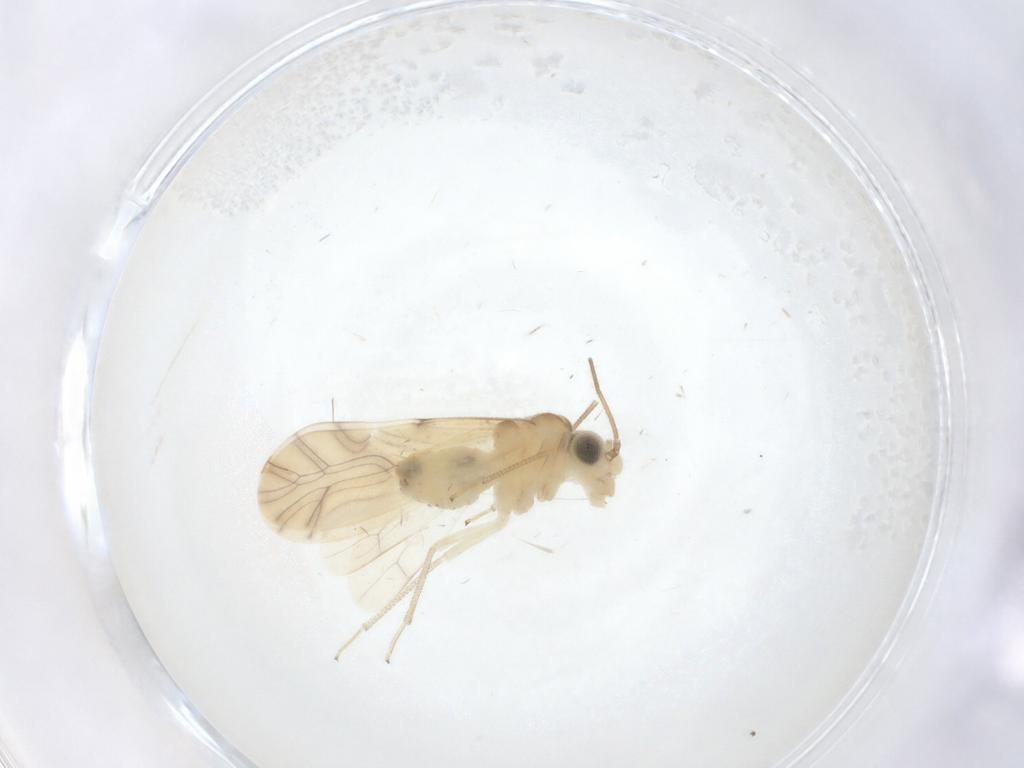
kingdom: Animalia
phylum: Arthropoda
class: Insecta
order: Psocodea
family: Caeciliusidae
